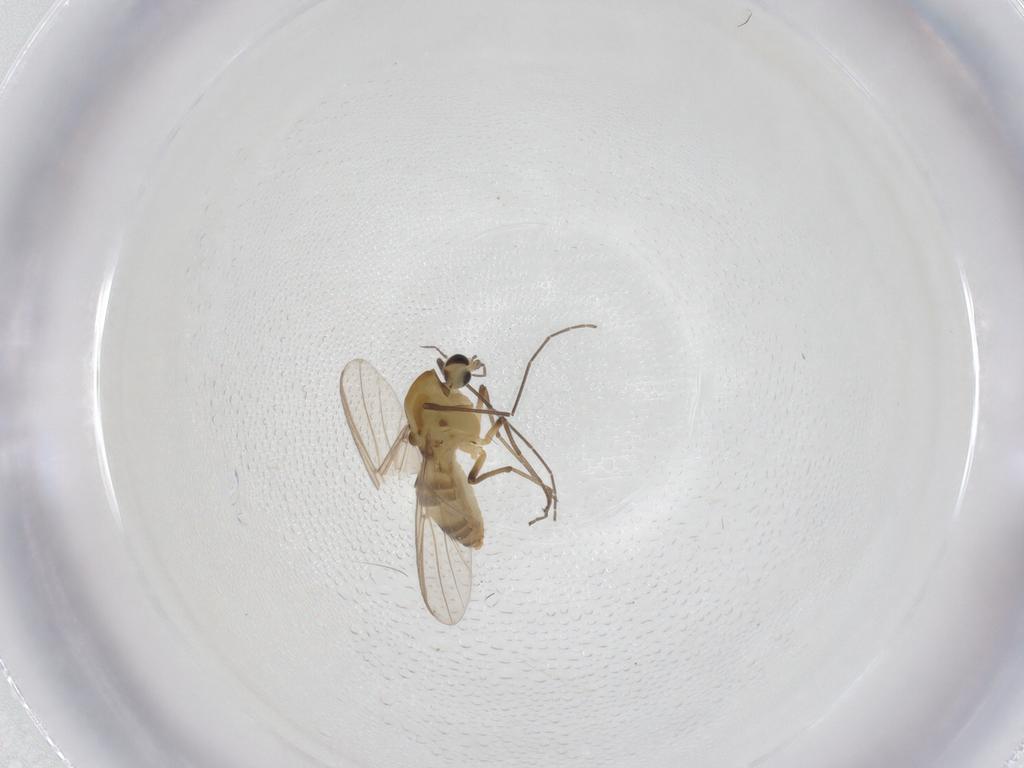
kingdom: Animalia
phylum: Arthropoda
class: Insecta
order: Diptera
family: Chironomidae
